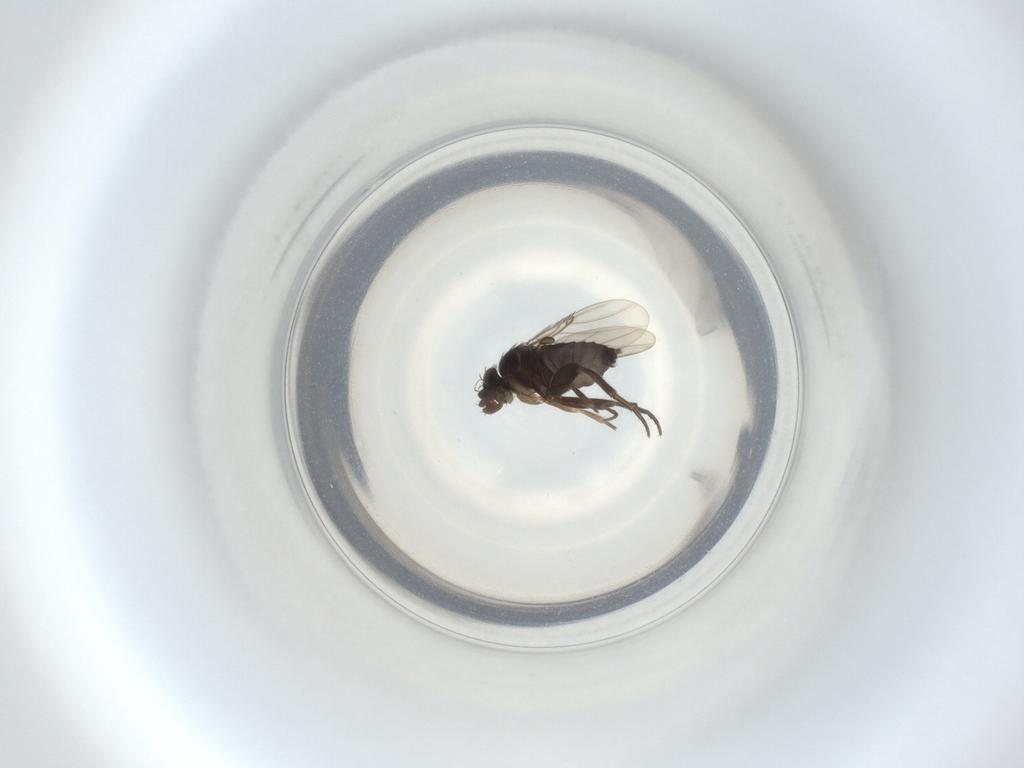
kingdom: Animalia
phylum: Arthropoda
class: Insecta
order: Diptera
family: Phoridae
